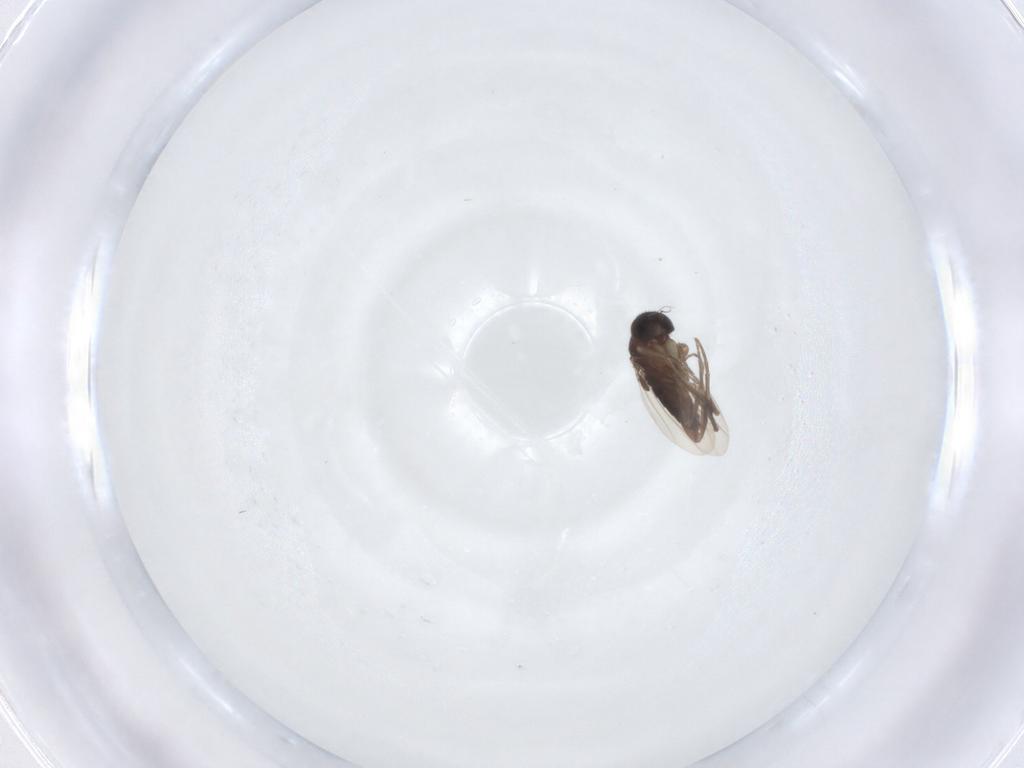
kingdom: Animalia
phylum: Arthropoda
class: Insecta
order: Diptera
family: Phoridae
